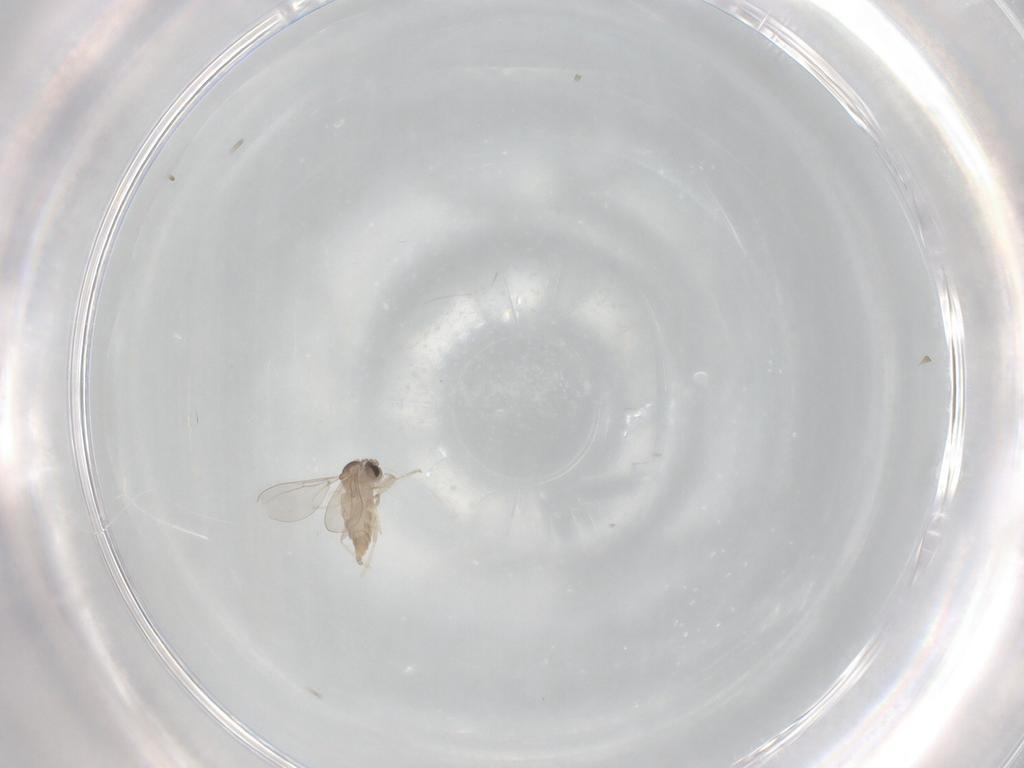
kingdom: Animalia
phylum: Arthropoda
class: Insecta
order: Diptera
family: Cecidomyiidae
